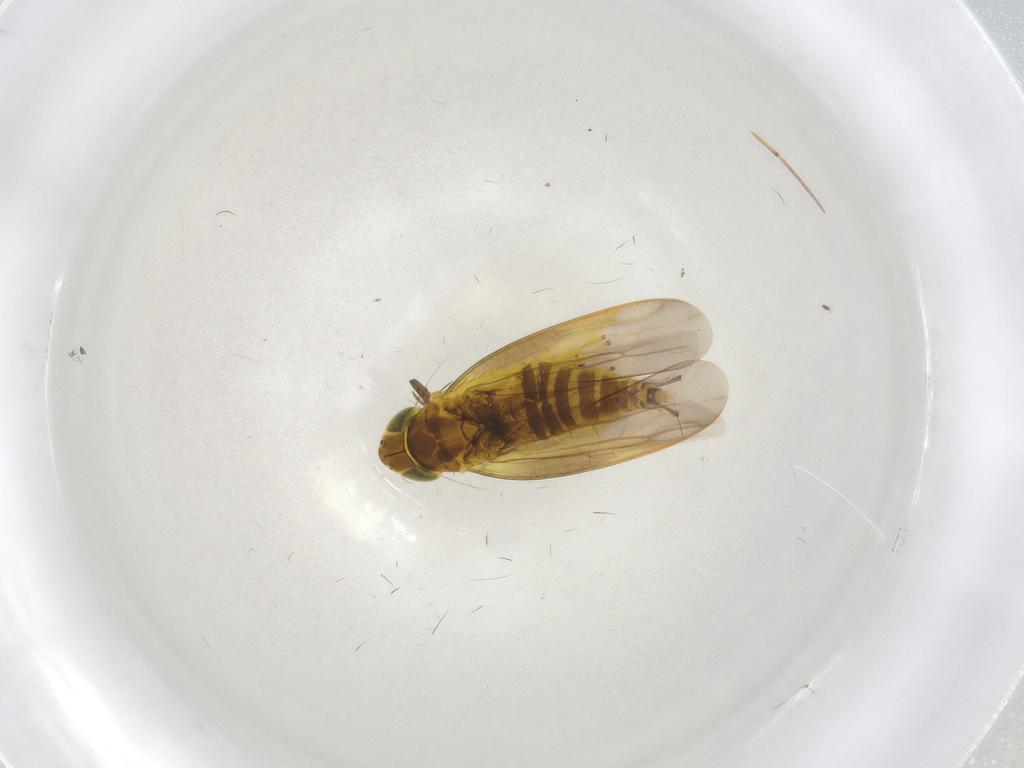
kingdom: Animalia
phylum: Arthropoda
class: Insecta
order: Hemiptera
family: Cicadellidae
